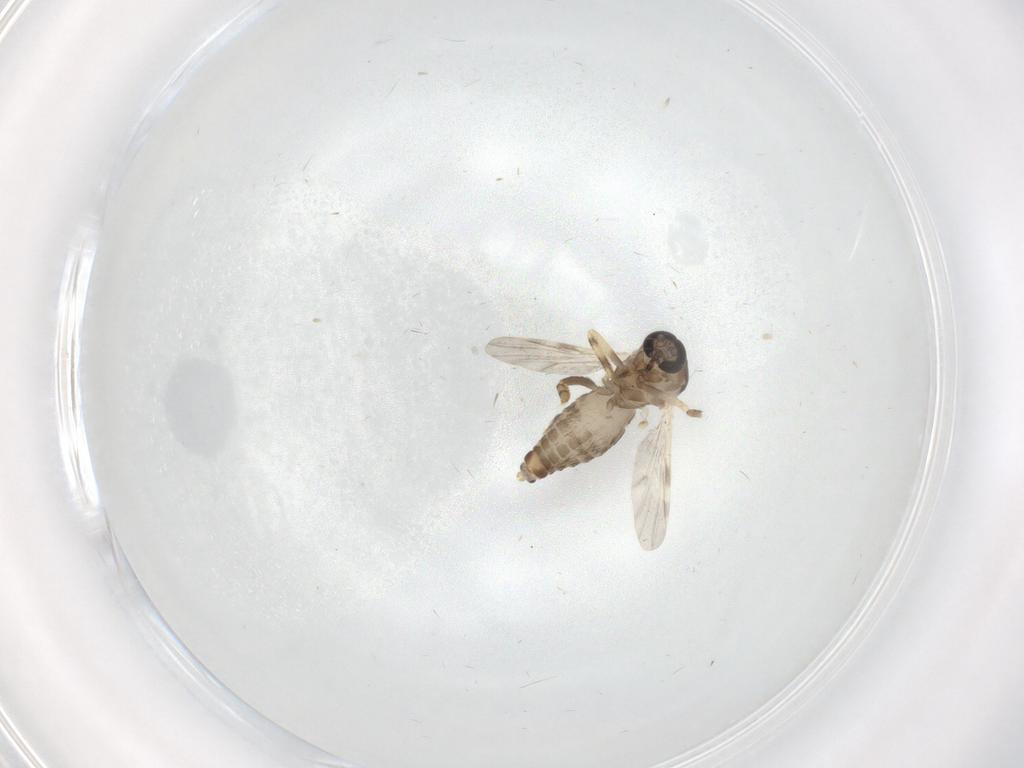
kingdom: Animalia
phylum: Arthropoda
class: Insecta
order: Diptera
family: Ceratopogonidae
